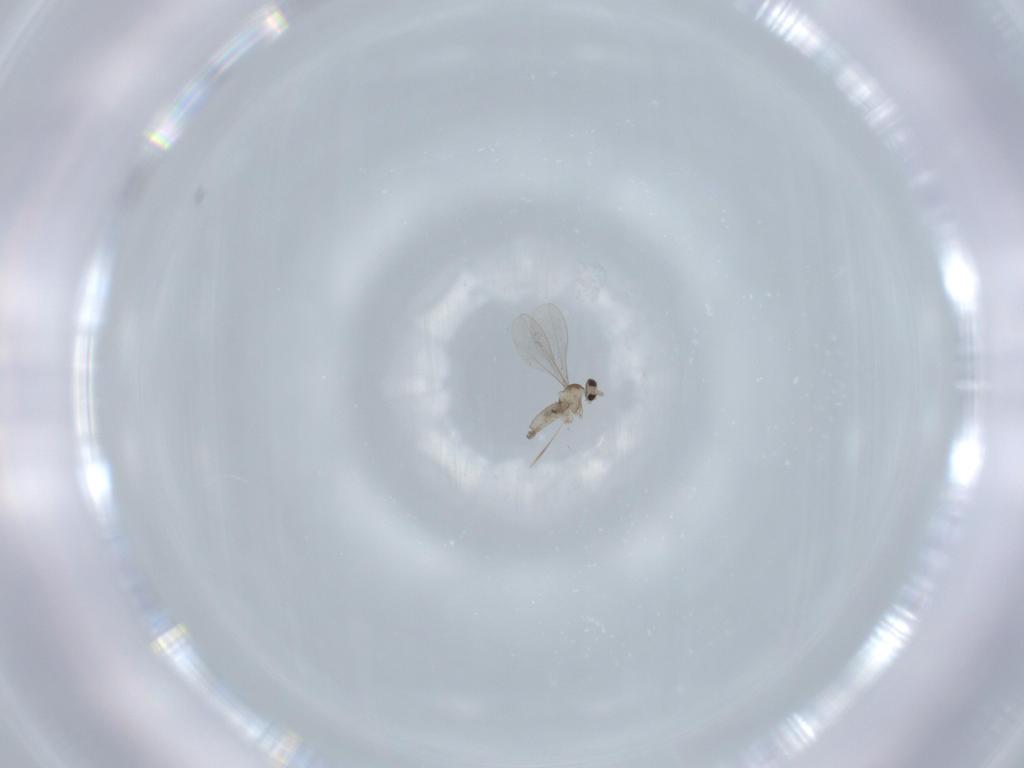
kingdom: Animalia
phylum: Arthropoda
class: Insecta
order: Diptera
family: Cecidomyiidae
